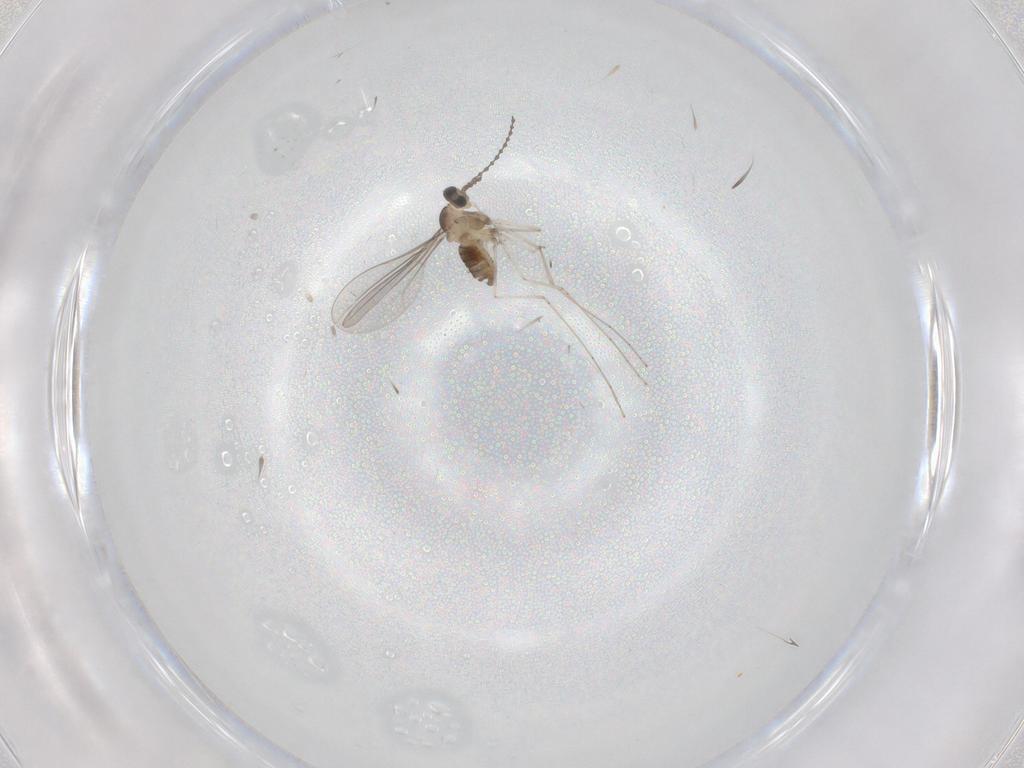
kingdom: Animalia
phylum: Arthropoda
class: Insecta
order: Diptera
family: Cecidomyiidae
